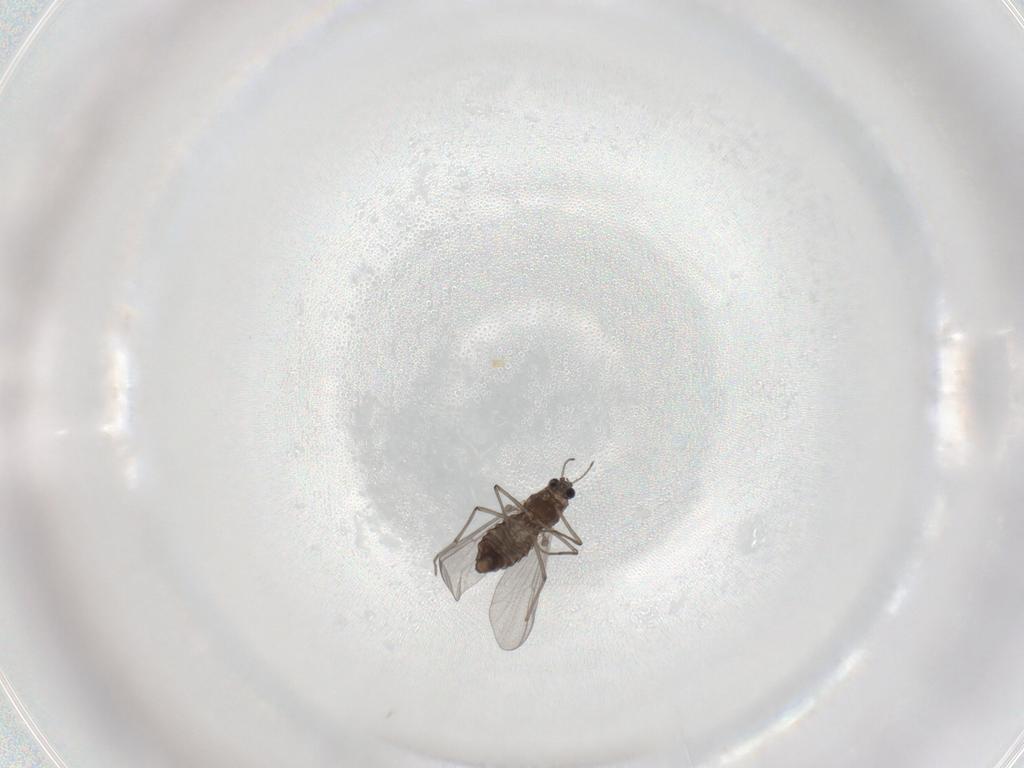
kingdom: Animalia
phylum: Arthropoda
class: Insecta
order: Diptera
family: Chironomidae
